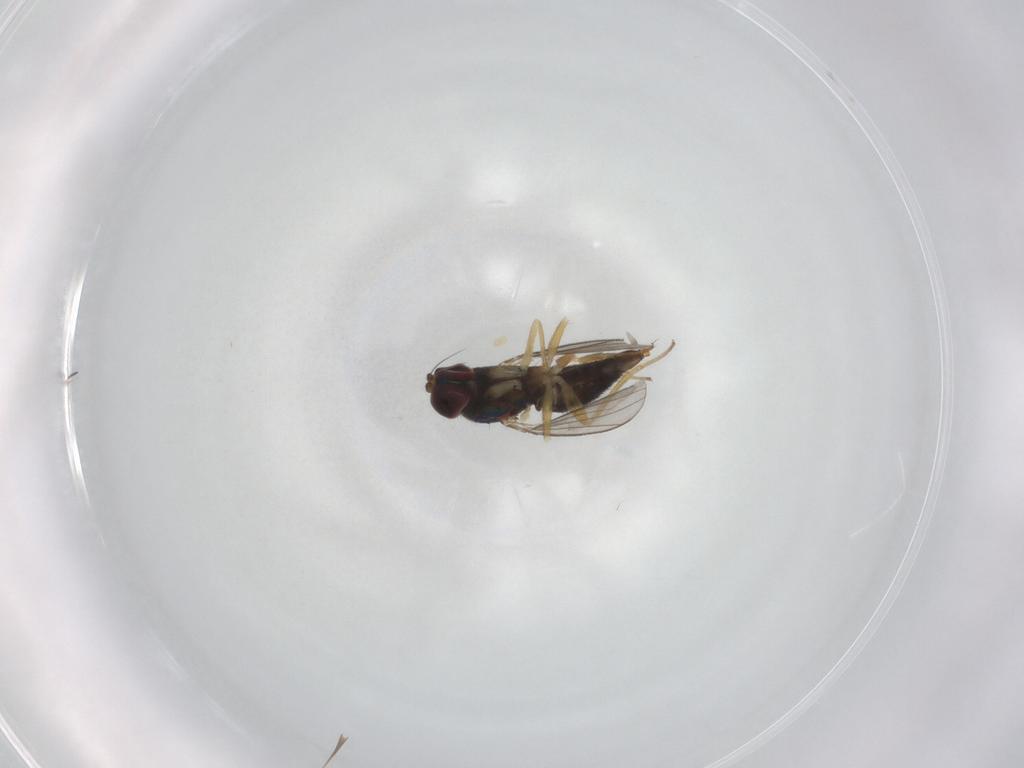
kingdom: Animalia
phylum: Arthropoda
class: Insecta
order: Diptera
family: Dolichopodidae
